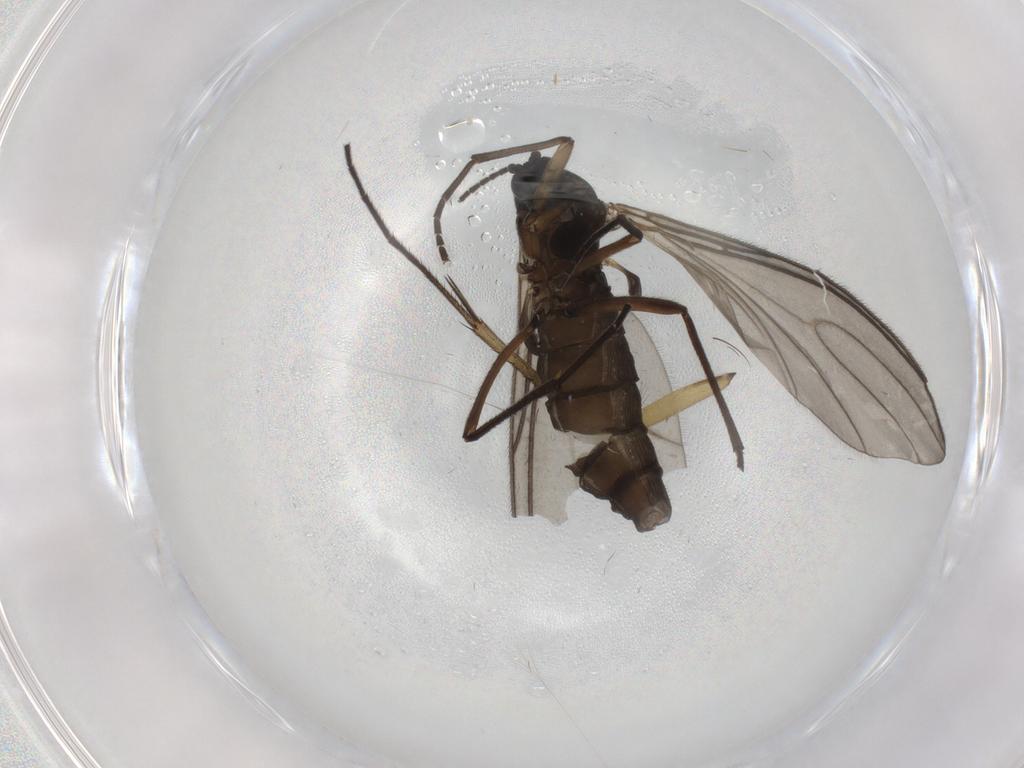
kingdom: Animalia
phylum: Arthropoda
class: Insecta
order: Diptera
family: Sciaridae
